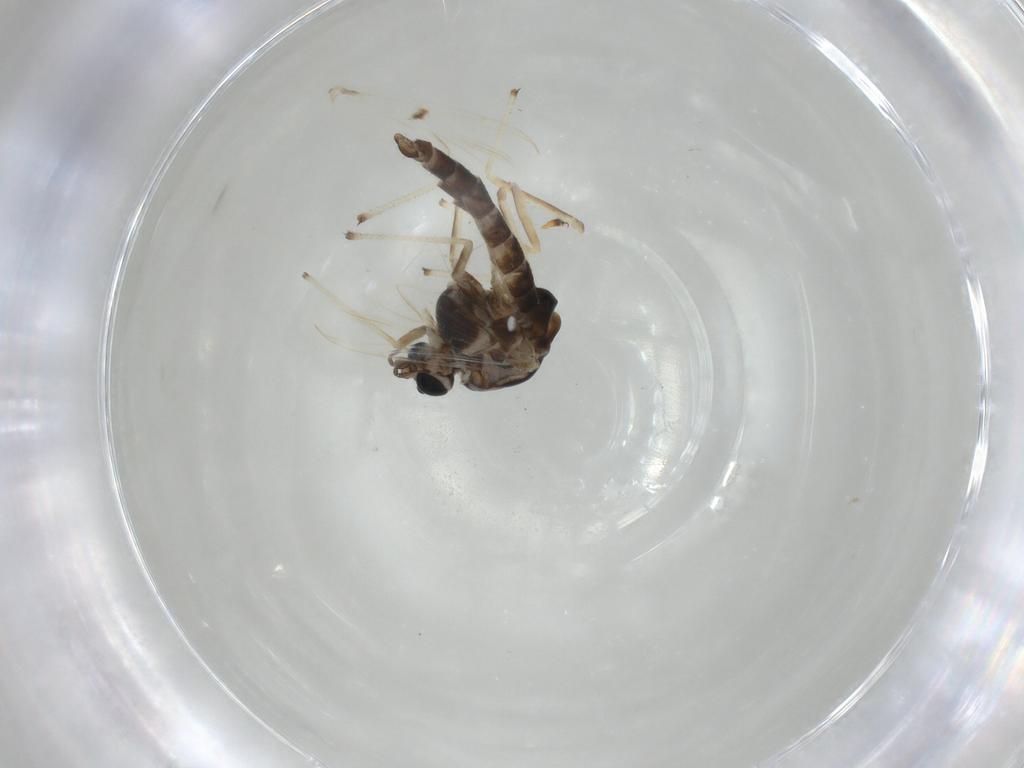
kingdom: Animalia
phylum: Arthropoda
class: Insecta
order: Diptera
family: Chironomidae
